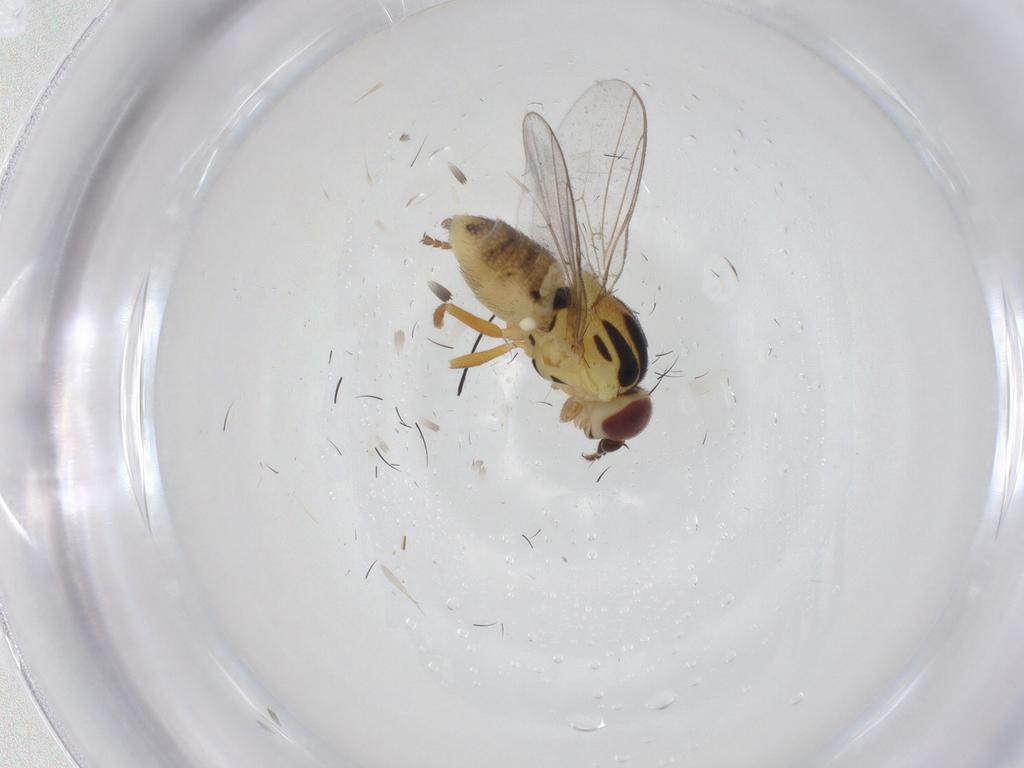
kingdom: Animalia
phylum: Arthropoda
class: Insecta
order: Diptera
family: Chloropidae
